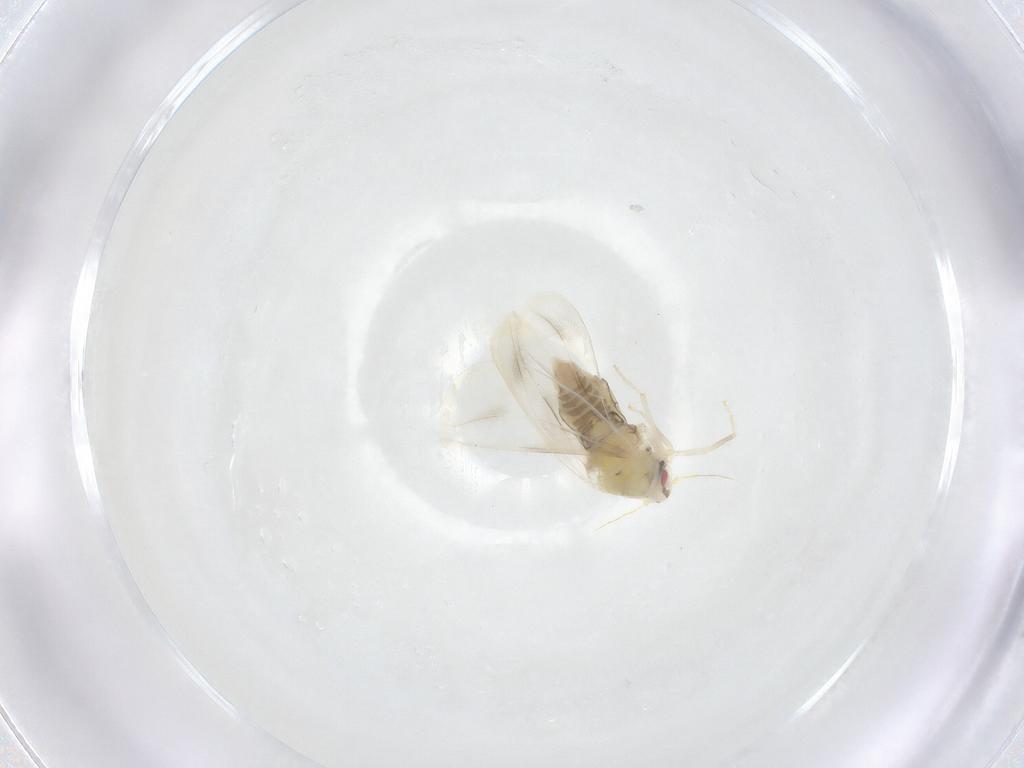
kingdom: Animalia
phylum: Arthropoda
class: Insecta
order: Hemiptera
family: Aleyrodidae
